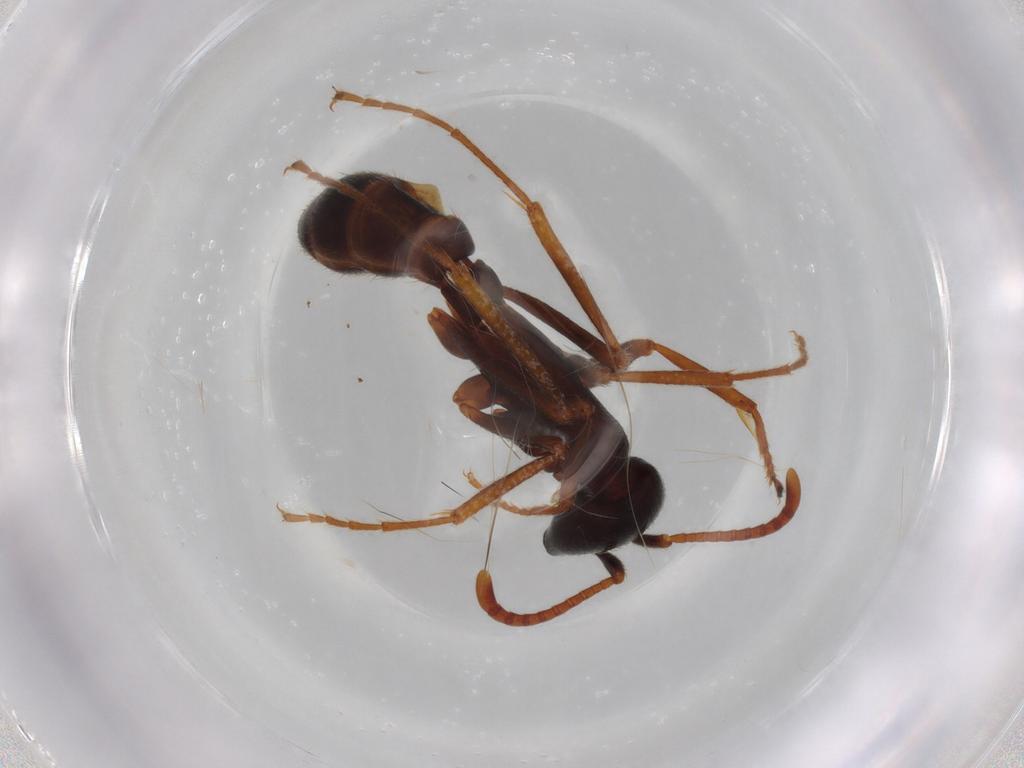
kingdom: Animalia
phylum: Arthropoda
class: Insecta
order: Hymenoptera
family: Formicidae
